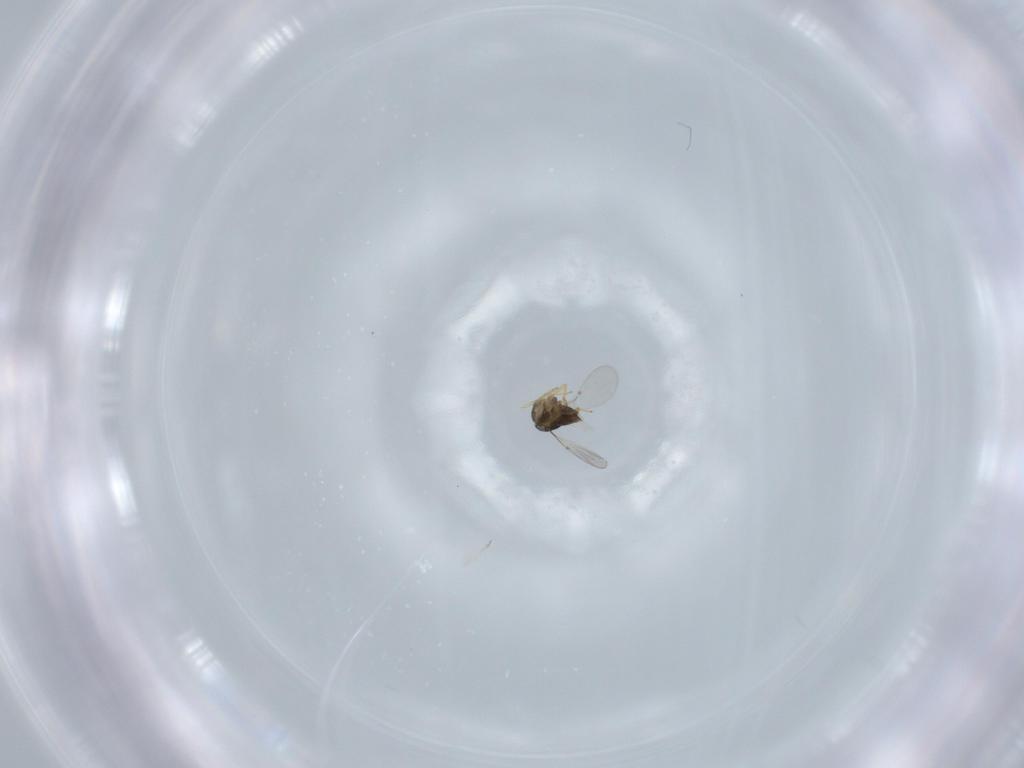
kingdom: Animalia
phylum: Arthropoda
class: Insecta
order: Hymenoptera
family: Encyrtidae
